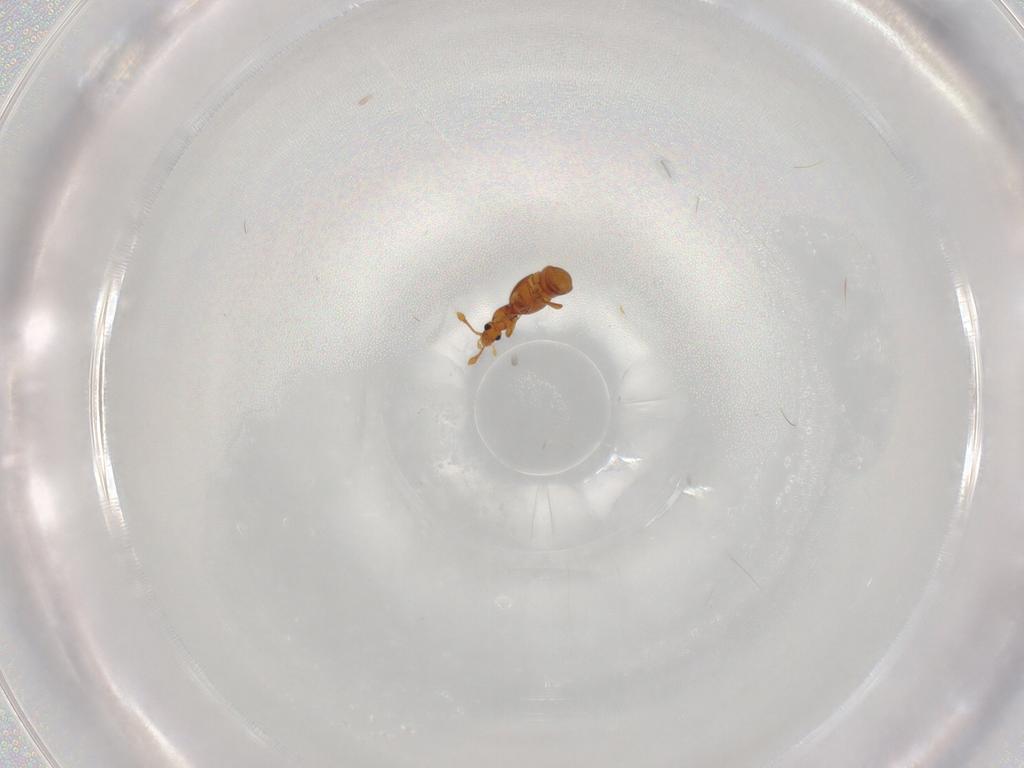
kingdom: Animalia
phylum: Arthropoda
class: Insecta
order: Coleoptera
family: Staphylinidae
